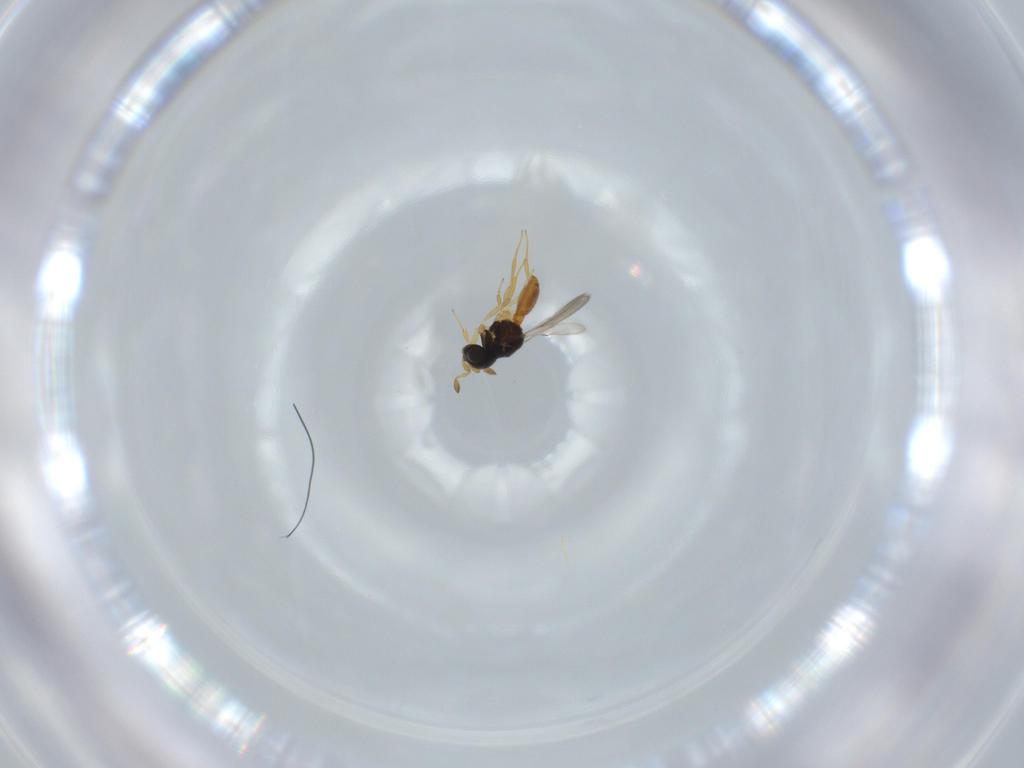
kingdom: Animalia
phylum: Arthropoda
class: Insecta
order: Hymenoptera
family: Scelionidae
